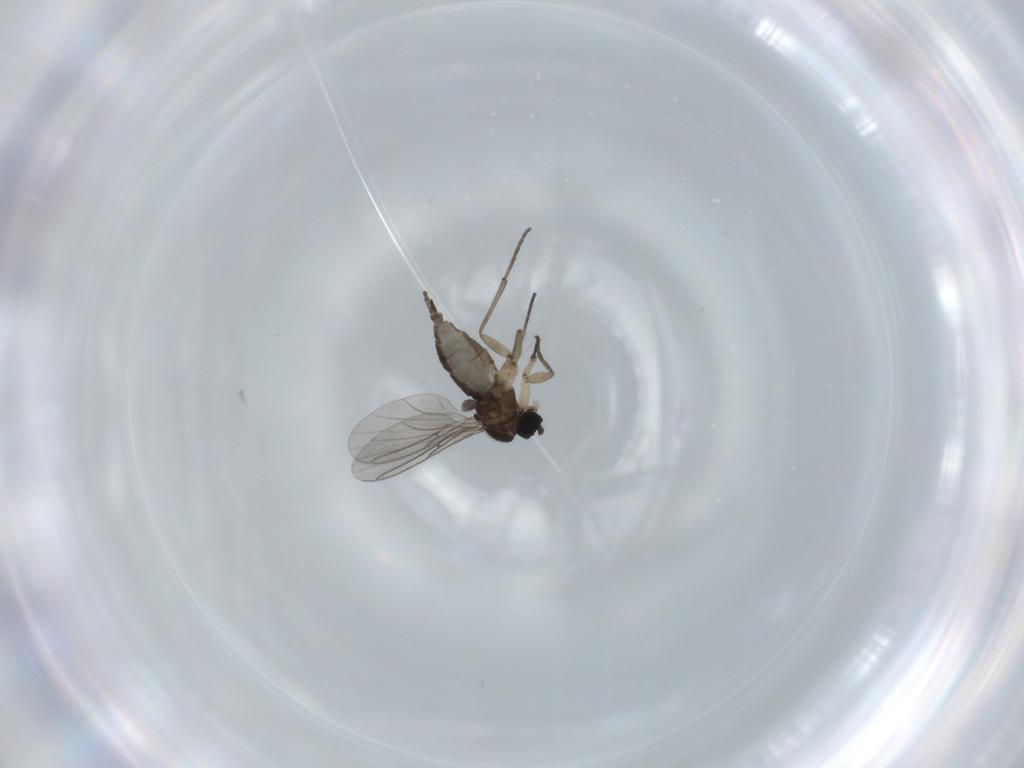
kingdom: Animalia
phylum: Arthropoda
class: Insecta
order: Diptera
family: Sciaridae
